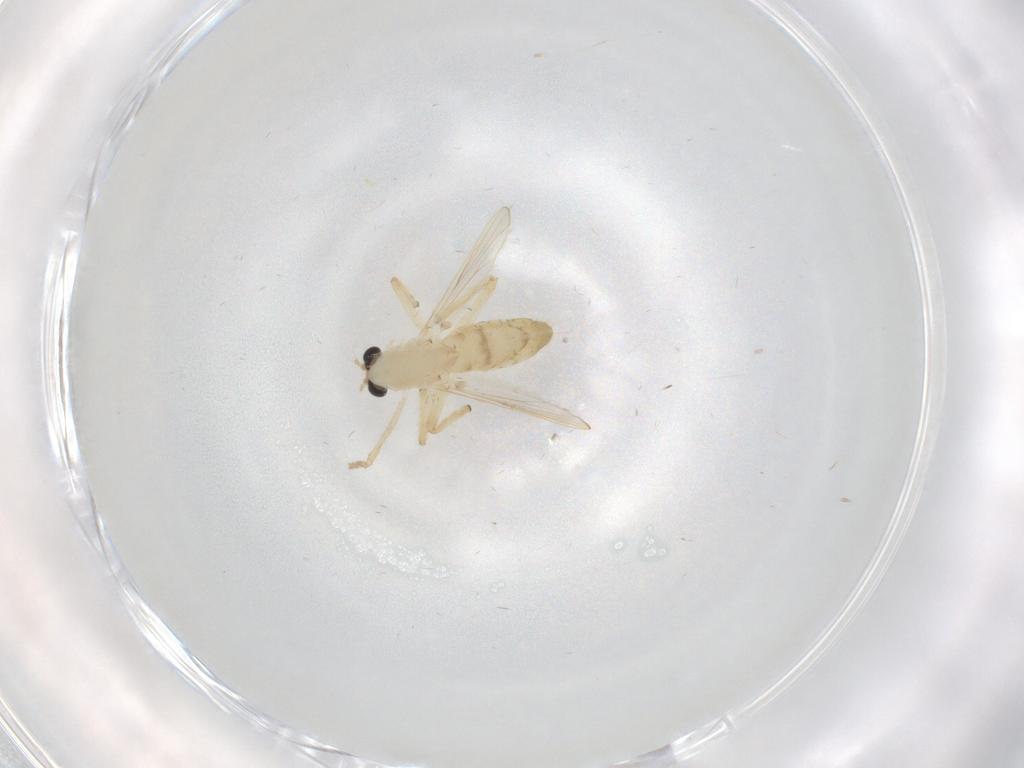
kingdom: Animalia
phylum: Arthropoda
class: Insecta
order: Diptera
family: Chironomidae
